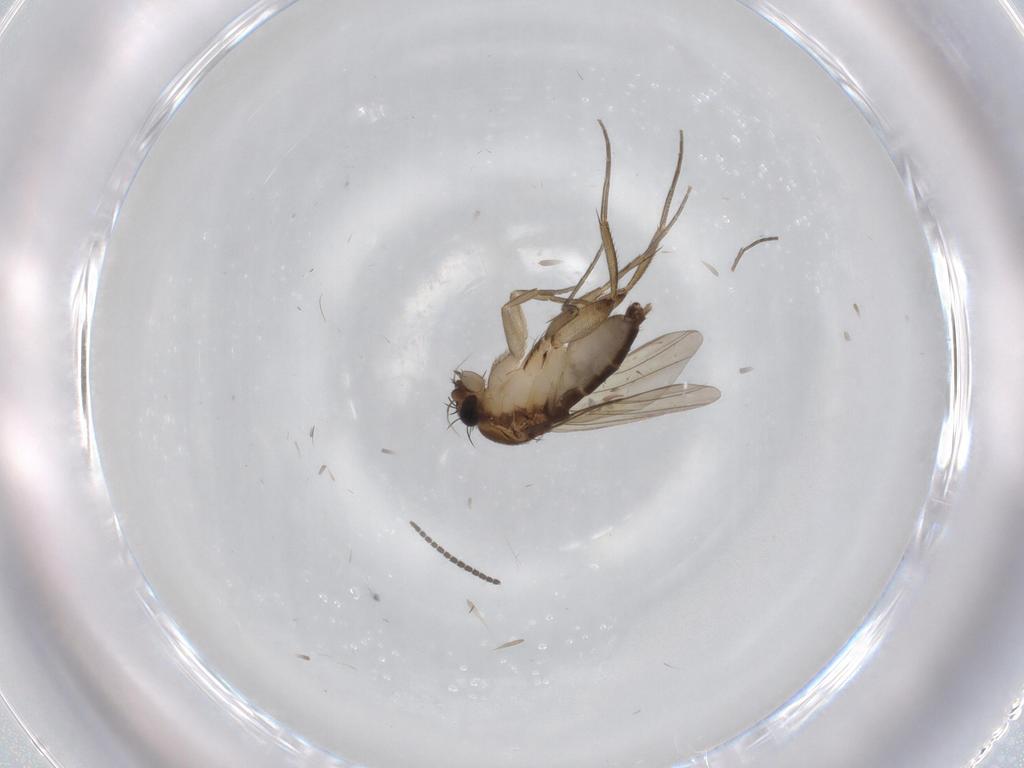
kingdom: Animalia
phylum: Arthropoda
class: Insecta
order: Diptera
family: Phoridae
